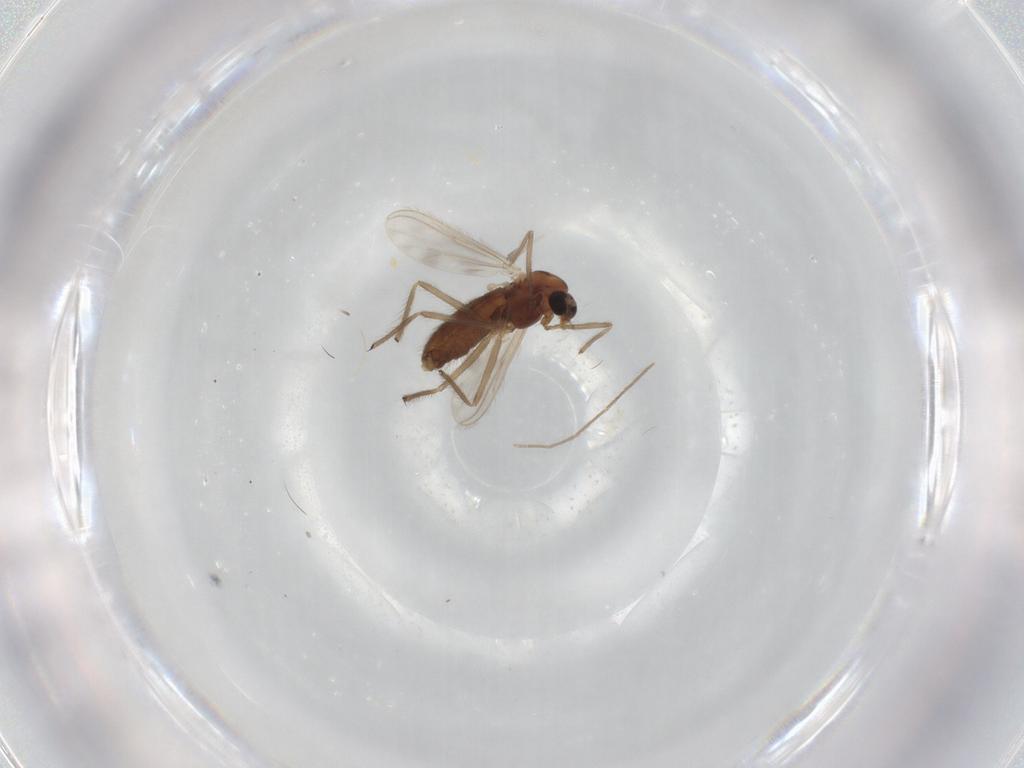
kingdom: Animalia
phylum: Arthropoda
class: Insecta
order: Diptera
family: Chironomidae
